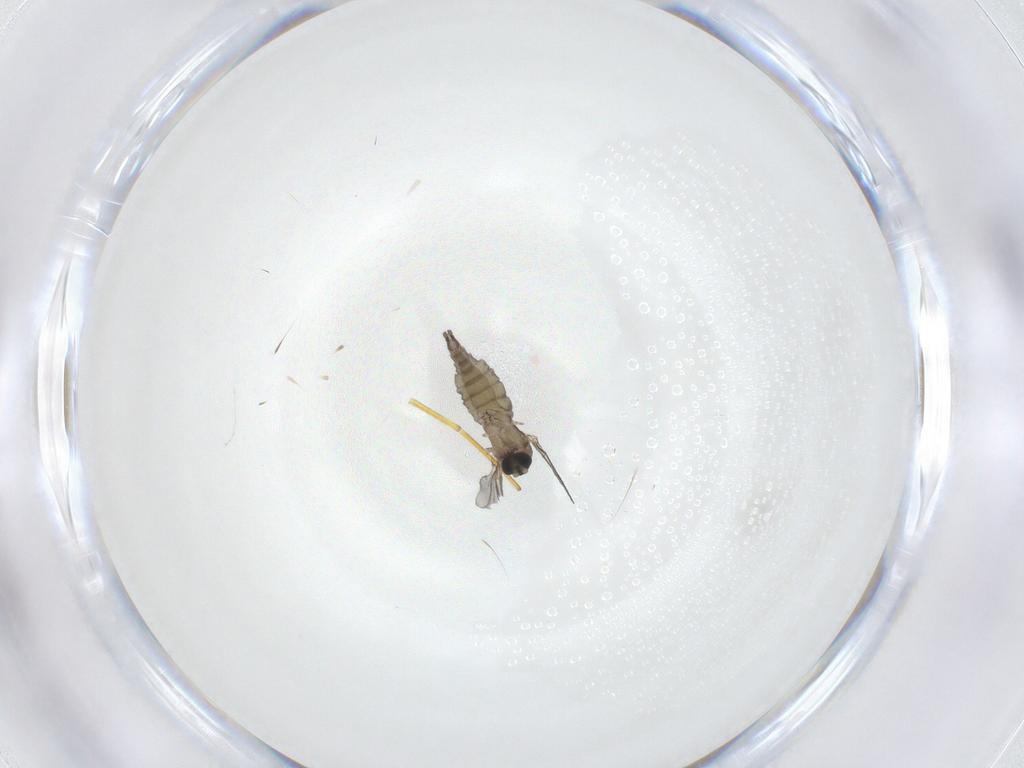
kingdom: Animalia
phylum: Arthropoda
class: Insecta
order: Diptera
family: Sciaridae
